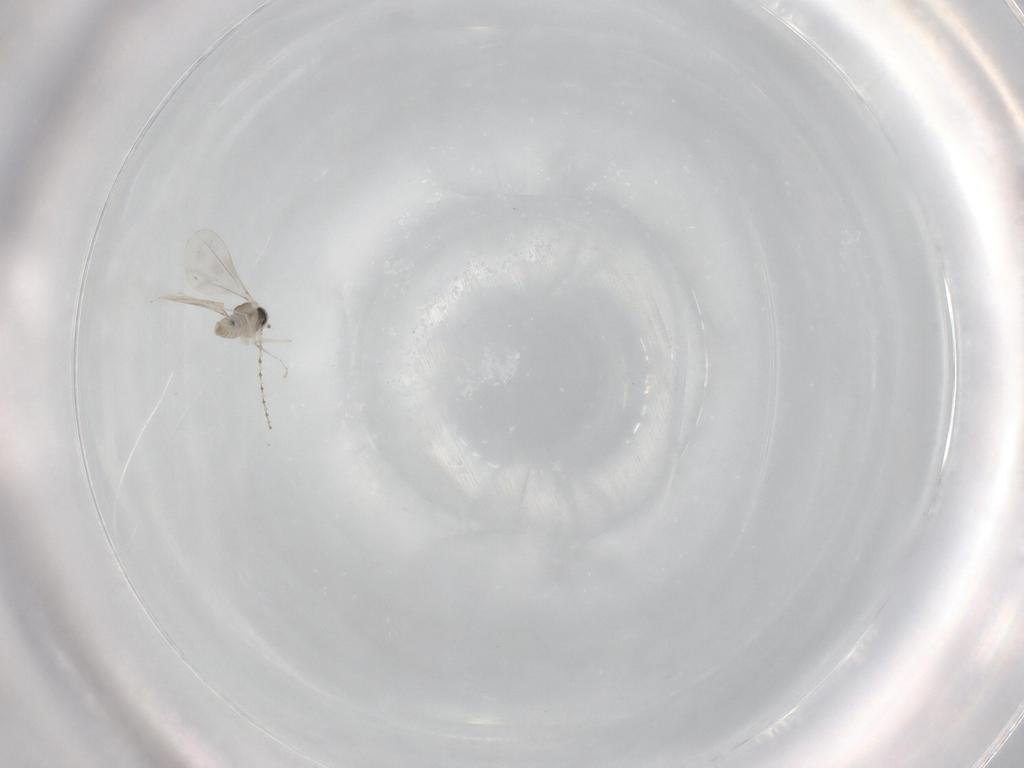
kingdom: Animalia
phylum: Arthropoda
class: Insecta
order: Diptera
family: Cecidomyiidae
